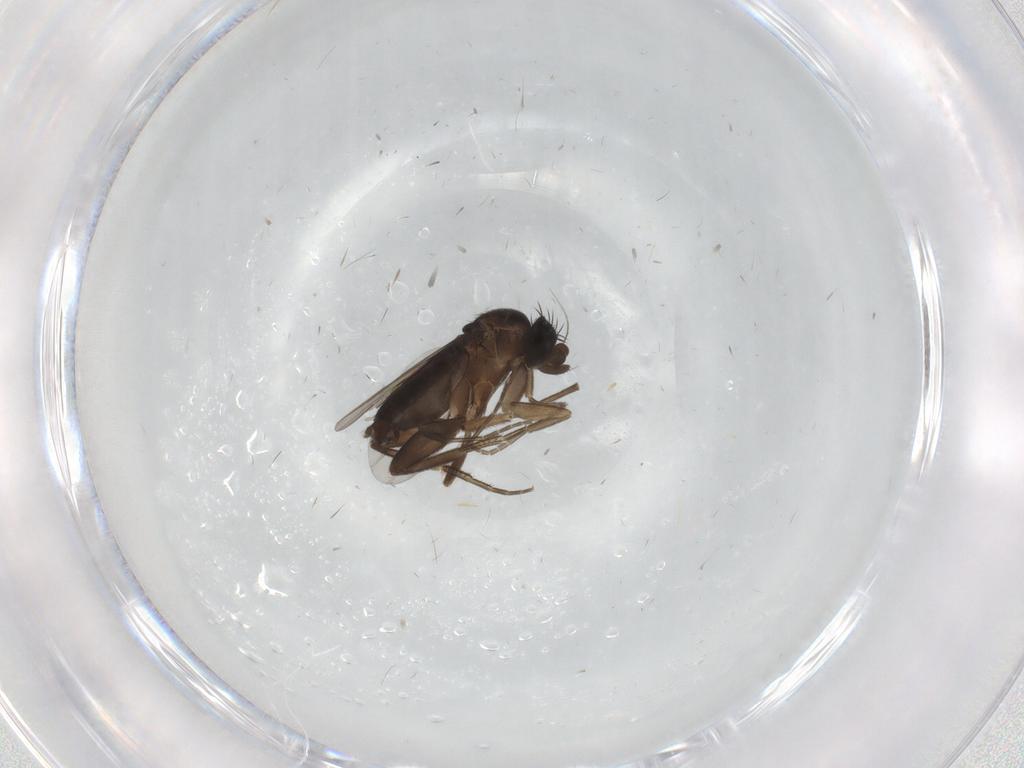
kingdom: Animalia
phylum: Arthropoda
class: Insecta
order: Diptera
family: Phoridae
